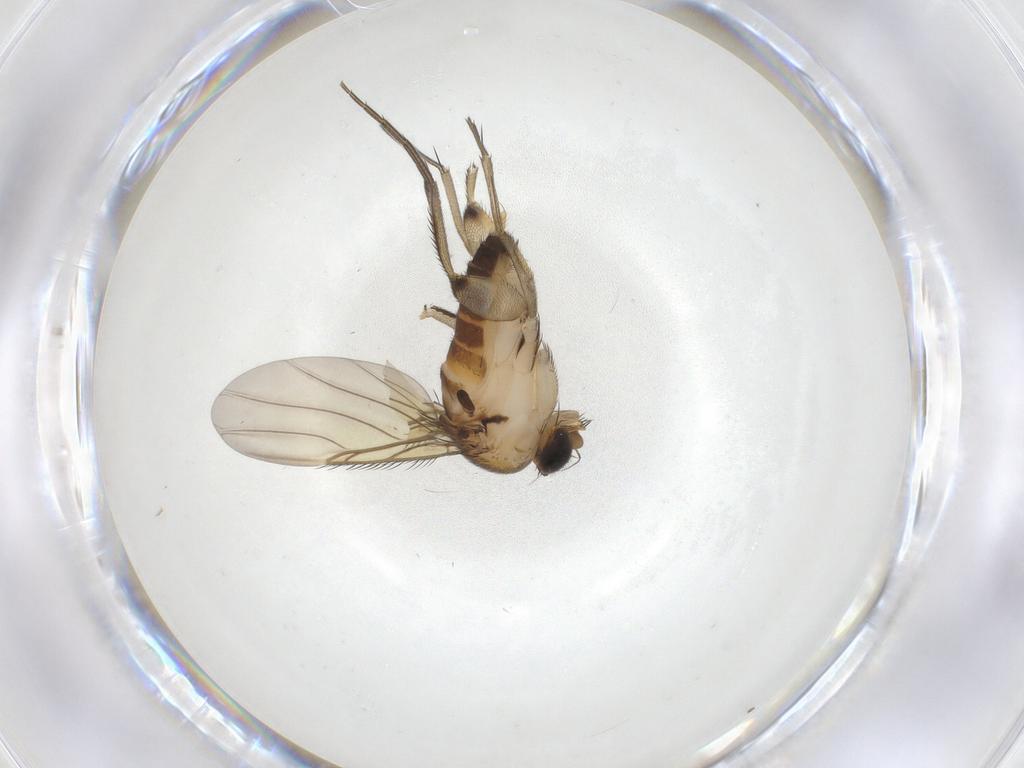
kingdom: Animalia
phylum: Arthropoda
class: Insecta
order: Diptera
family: Phoridae
